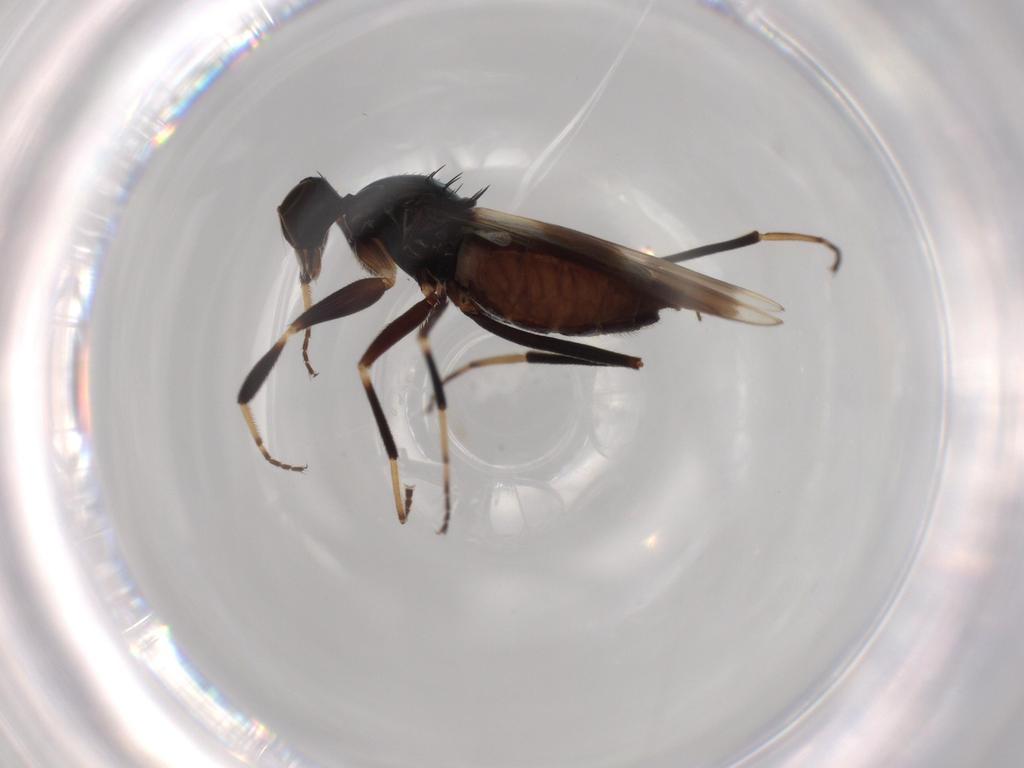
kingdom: Animalia
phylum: Arthropoda
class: Insecta
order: Diptera
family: Hybotidae
